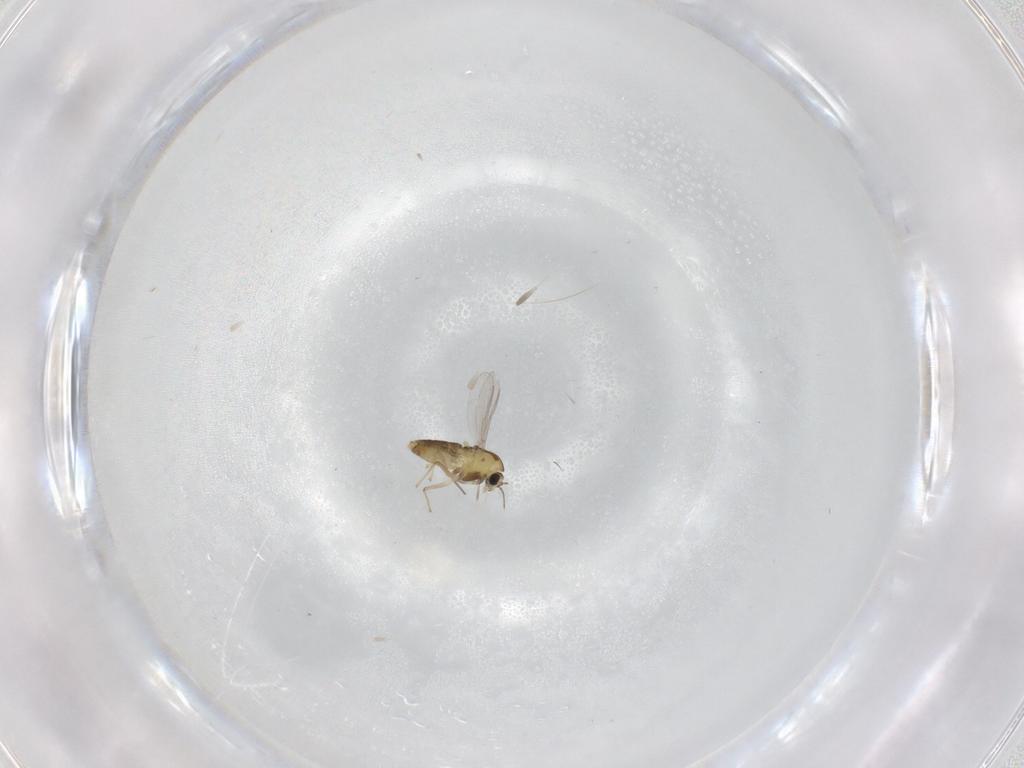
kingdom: Animalia
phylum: Arthropoda
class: Insecta
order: Diptera
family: Chironomidae
